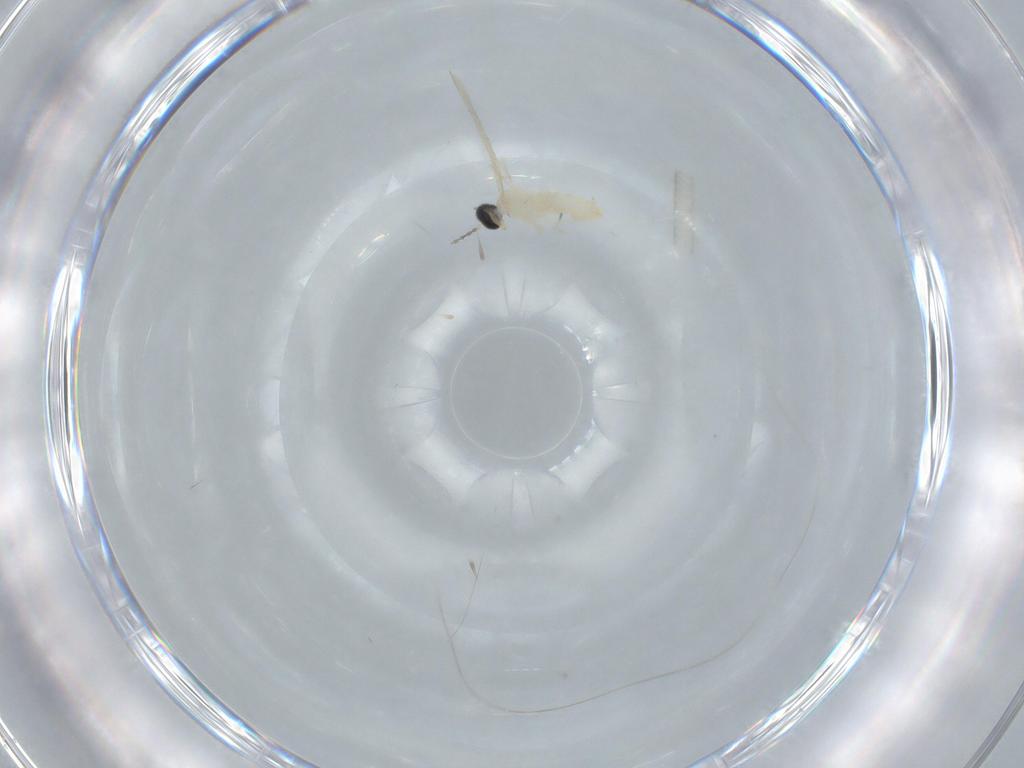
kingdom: Animalia
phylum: Arthropoda
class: Insecta
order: Diptera
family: Cecidomyiidae
